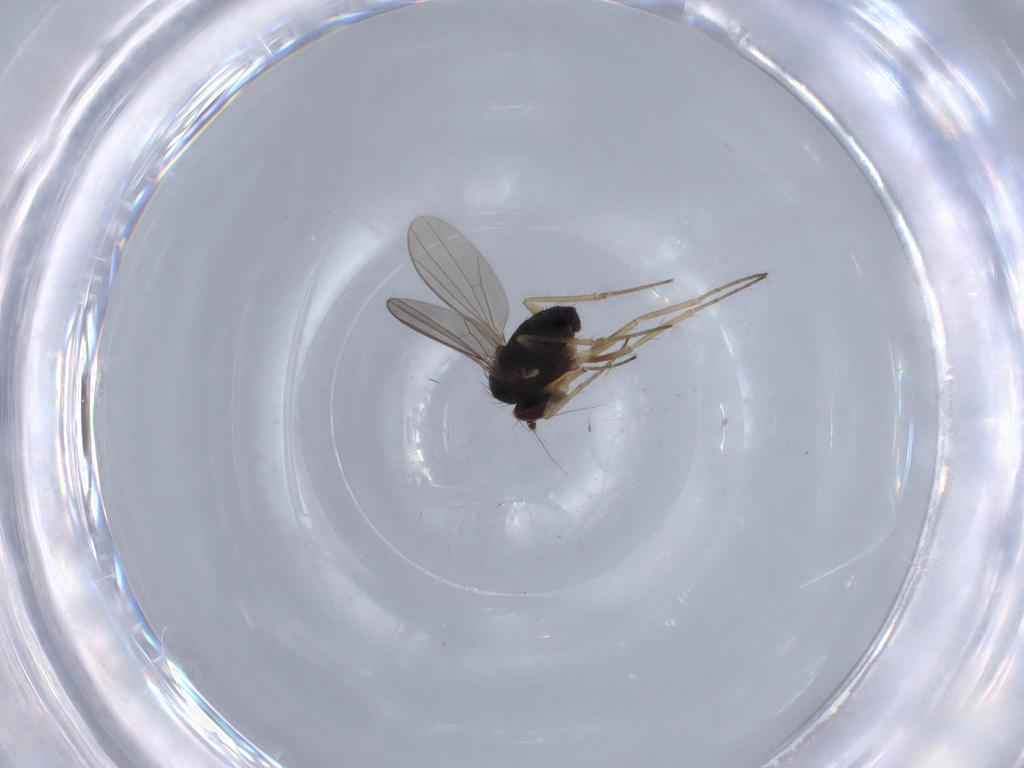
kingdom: Animalia
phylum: Arthropoda
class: Insecta
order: Diptera
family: Dolichopodidae
